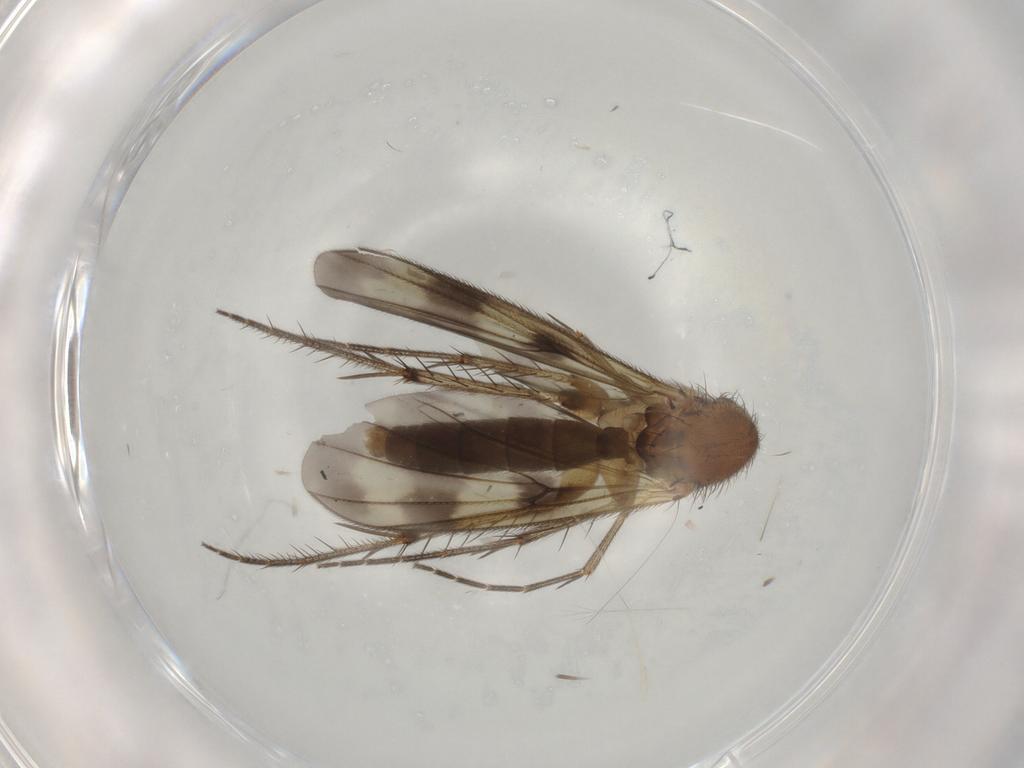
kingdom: Animalia
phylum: Arthropoda
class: Insecta
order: Diptera
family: Mycetophilidae
